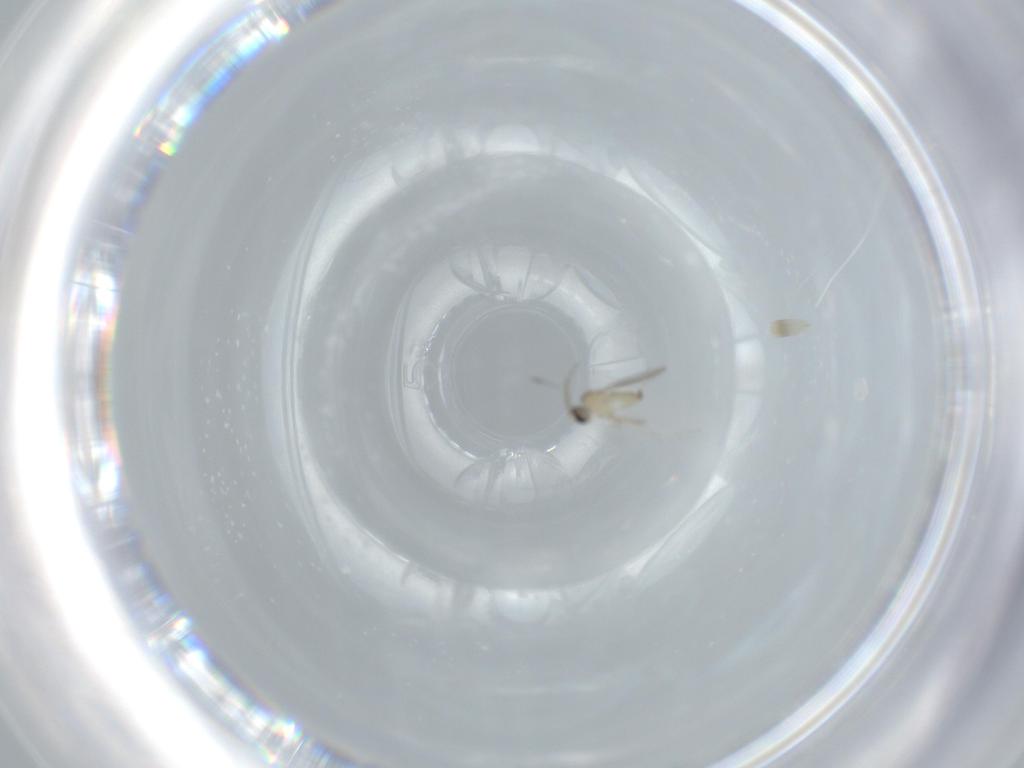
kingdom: Animalia
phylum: Arthropoda
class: Insecta
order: Diptera
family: Cecidomyiidae
